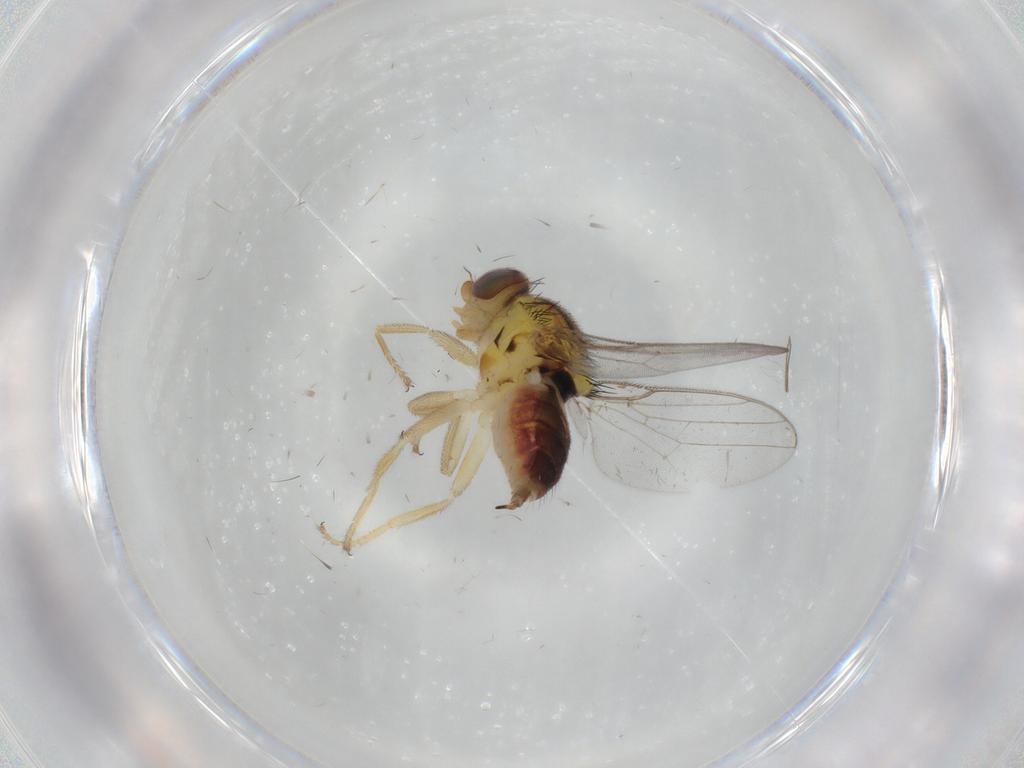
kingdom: Animalia
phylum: Arthropoda
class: Insecta
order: Diptera
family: Chloropidae
